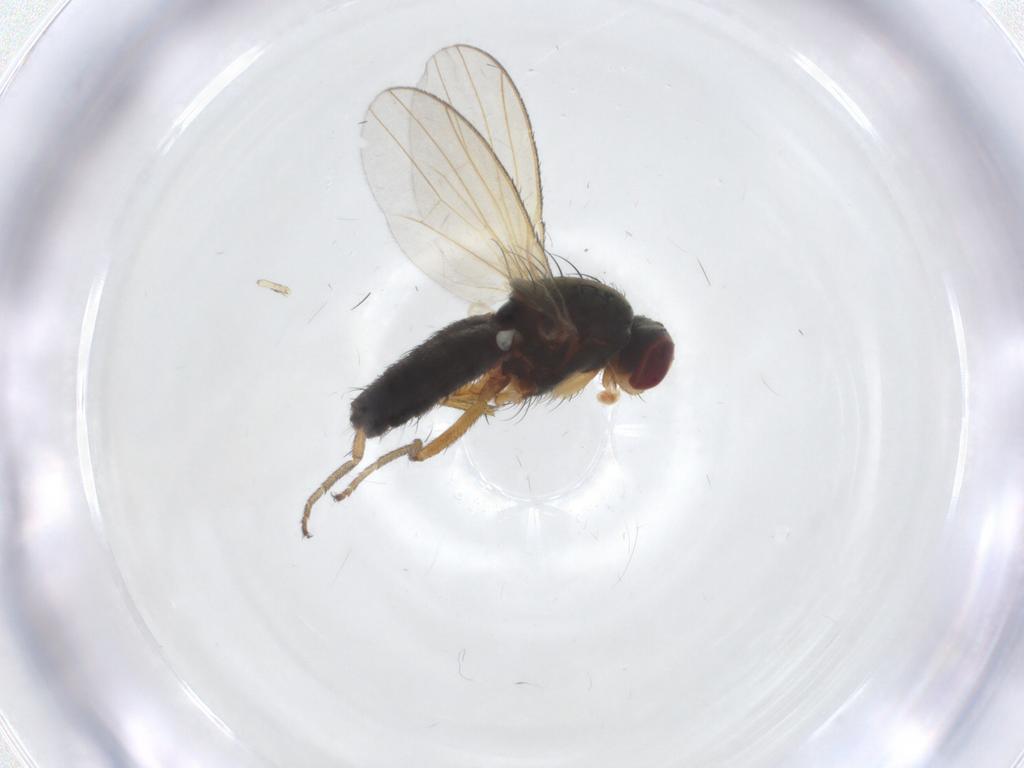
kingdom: Animalia
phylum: Arthropoda
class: Insecta
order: Diptera
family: Heleomyzidae
